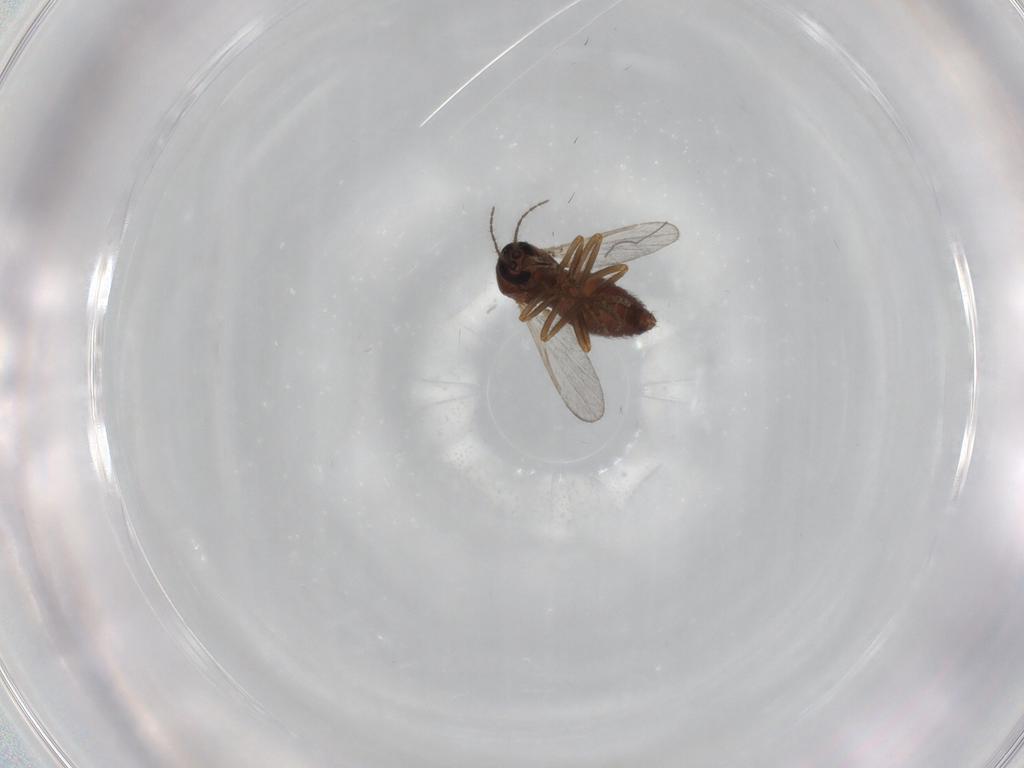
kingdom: Animalia
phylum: Arthropoda
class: Insecta
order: Diptera
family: Ceratopogonidae
